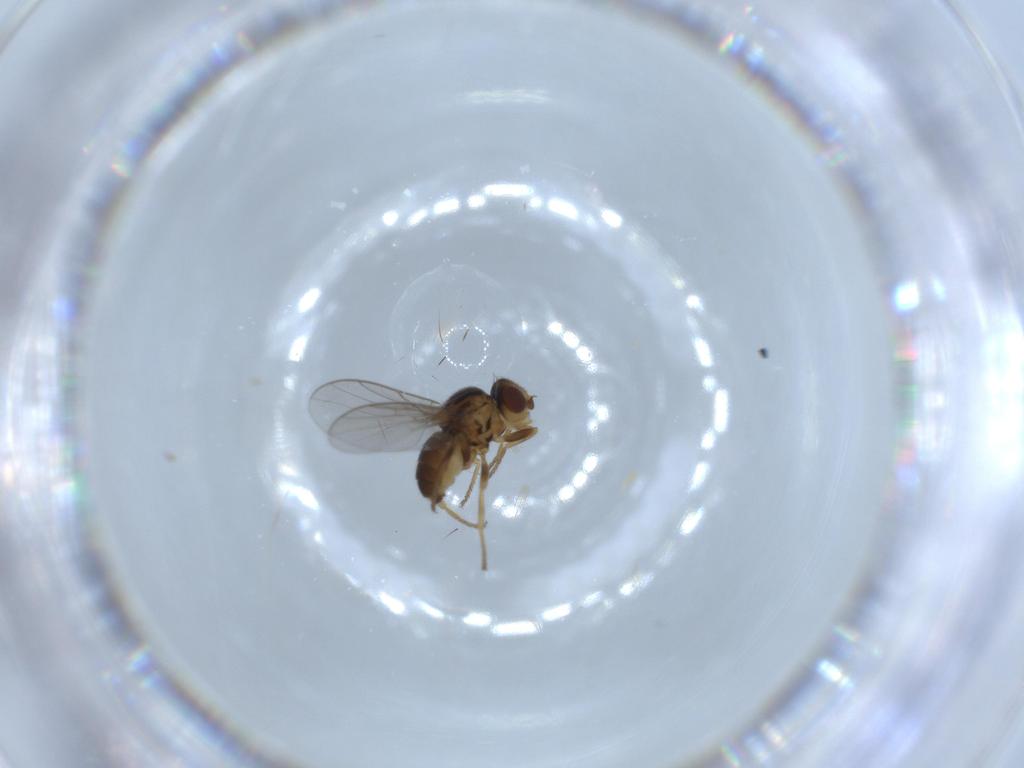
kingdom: Animalia
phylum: Arthropoda
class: Insecta
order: Diptera
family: Chloropidae
